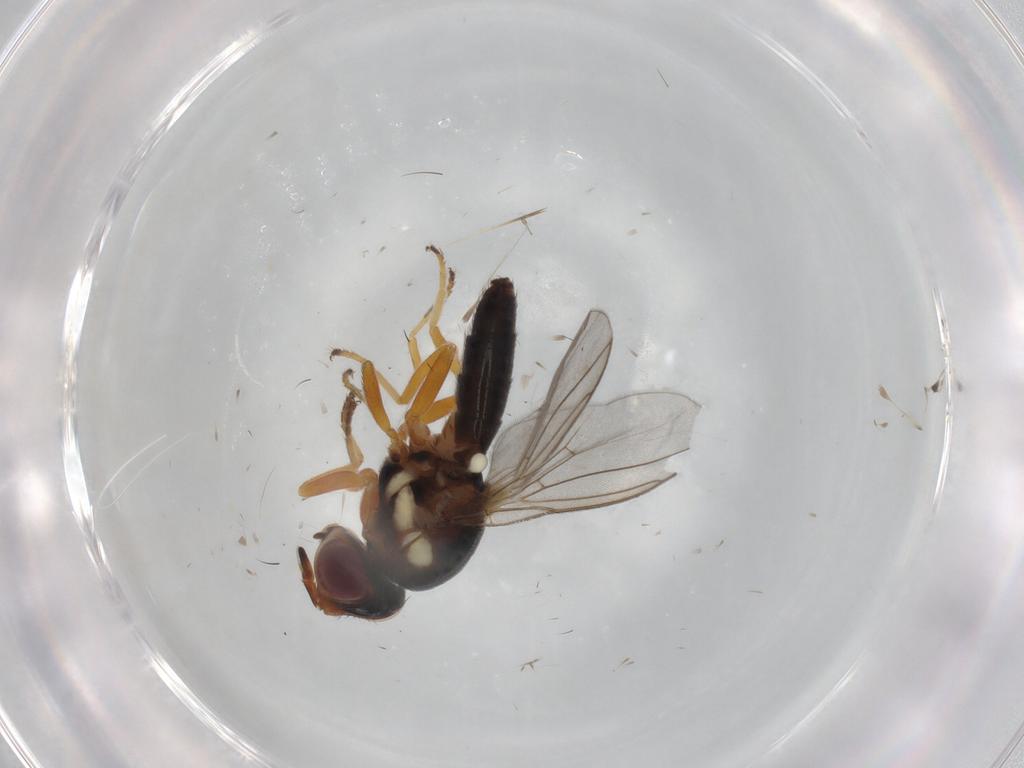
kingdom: Animalia
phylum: Arthropoda
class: Insecta
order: Diptera
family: Chloropidae
